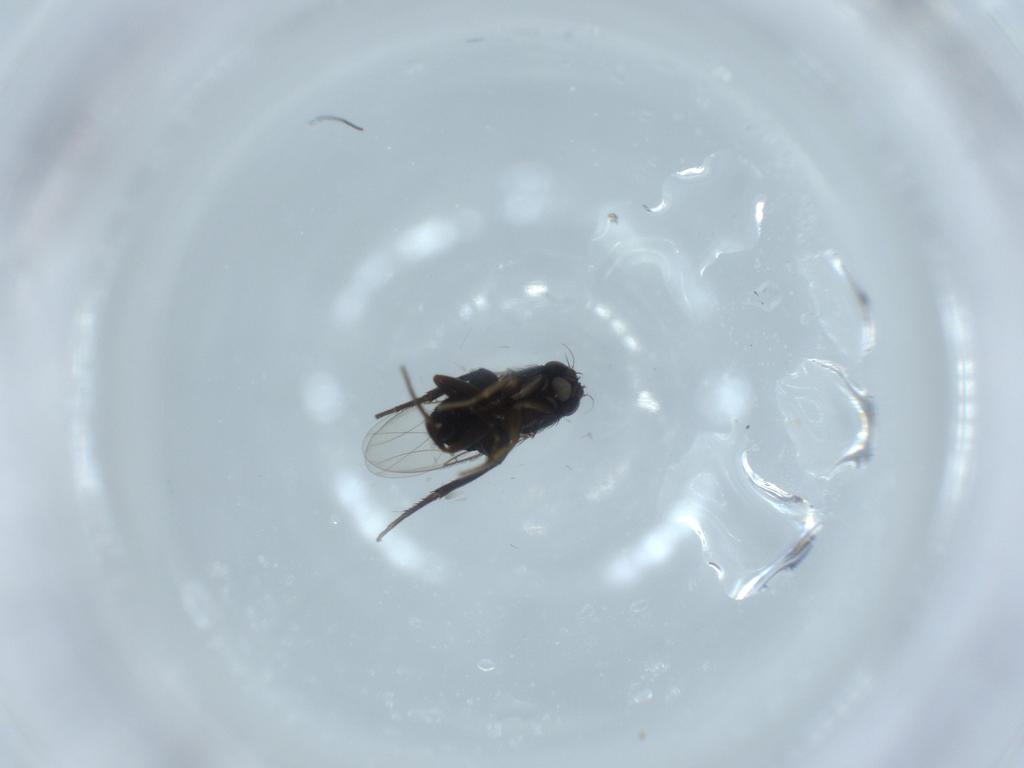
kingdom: Animalia
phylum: Arthropoda
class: Insecta
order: Diptera
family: Phoridae
